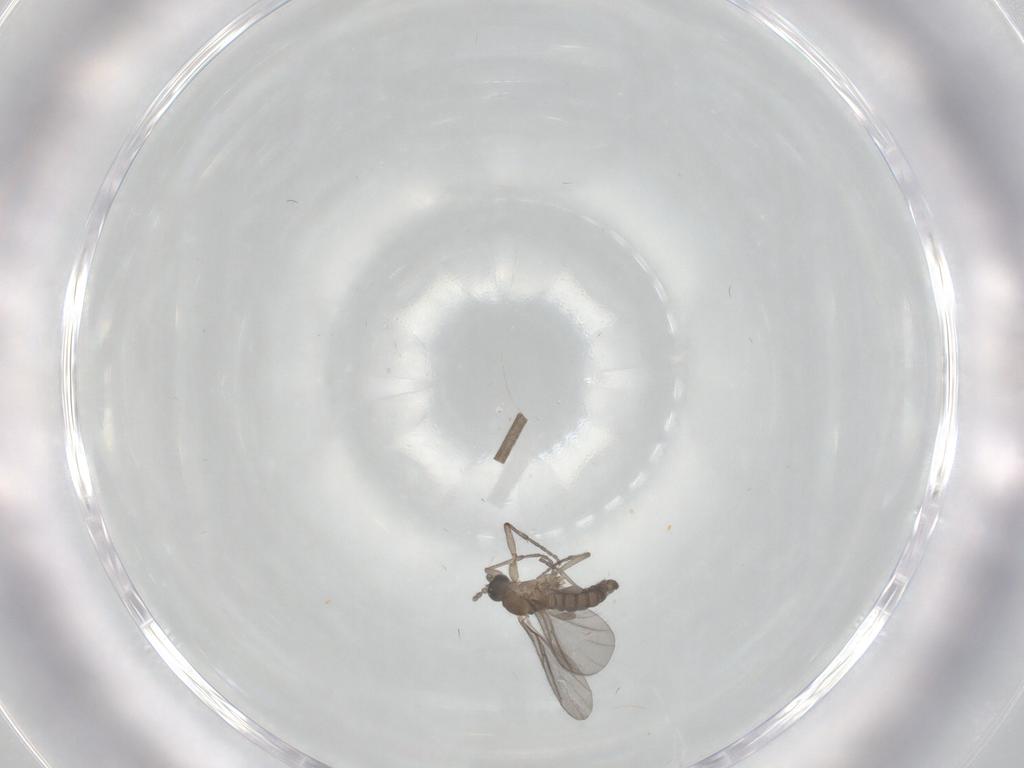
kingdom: Animalia
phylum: Arthropoda
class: Insecta
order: Diptera
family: Sciaridae
